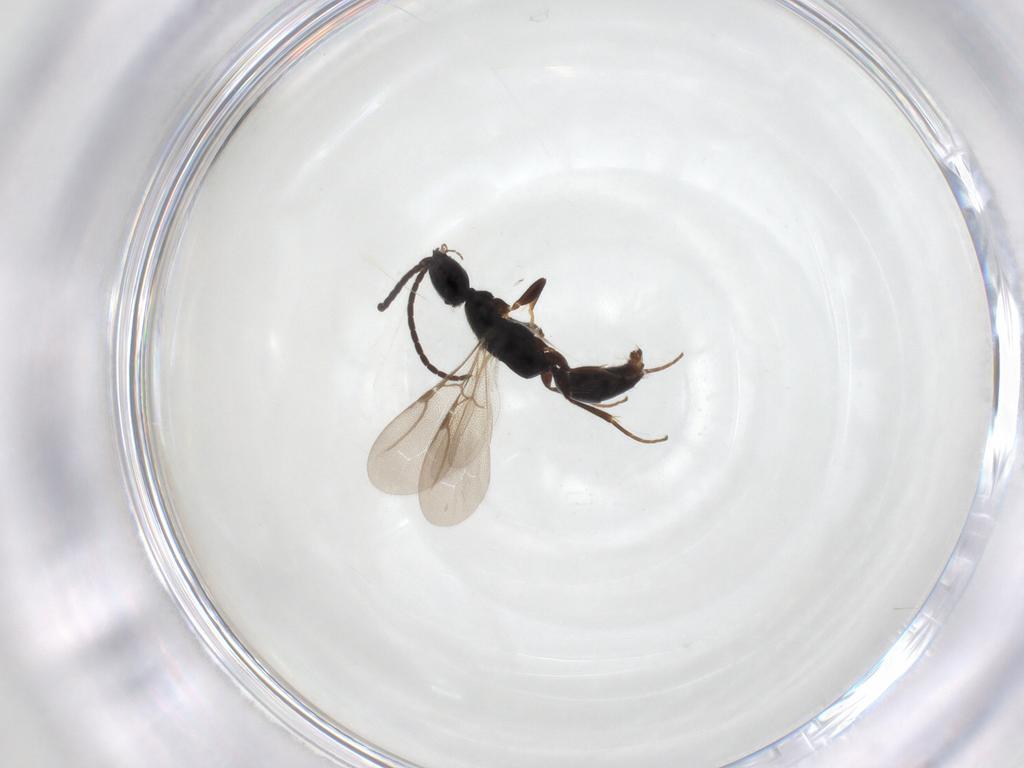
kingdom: Animalia
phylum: Arthropoda
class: Insecta
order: Hymenoptera
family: Bethylidae
